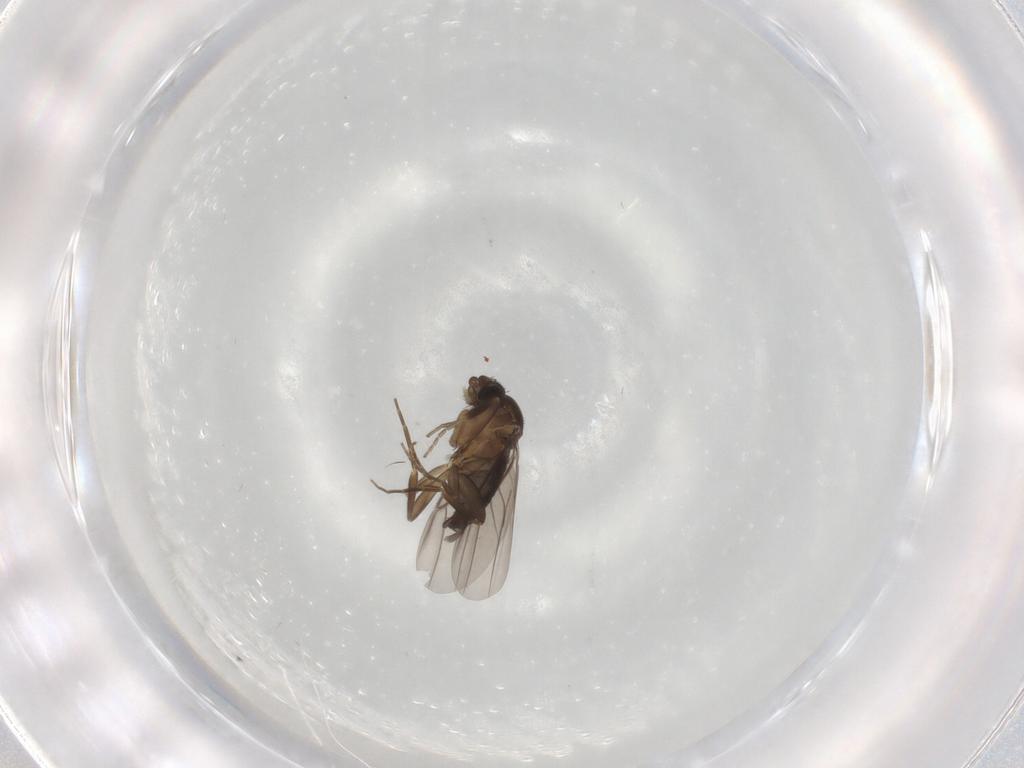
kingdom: Animalia
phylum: Arthropoda
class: Insecta
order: Diptera
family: Phoridae
